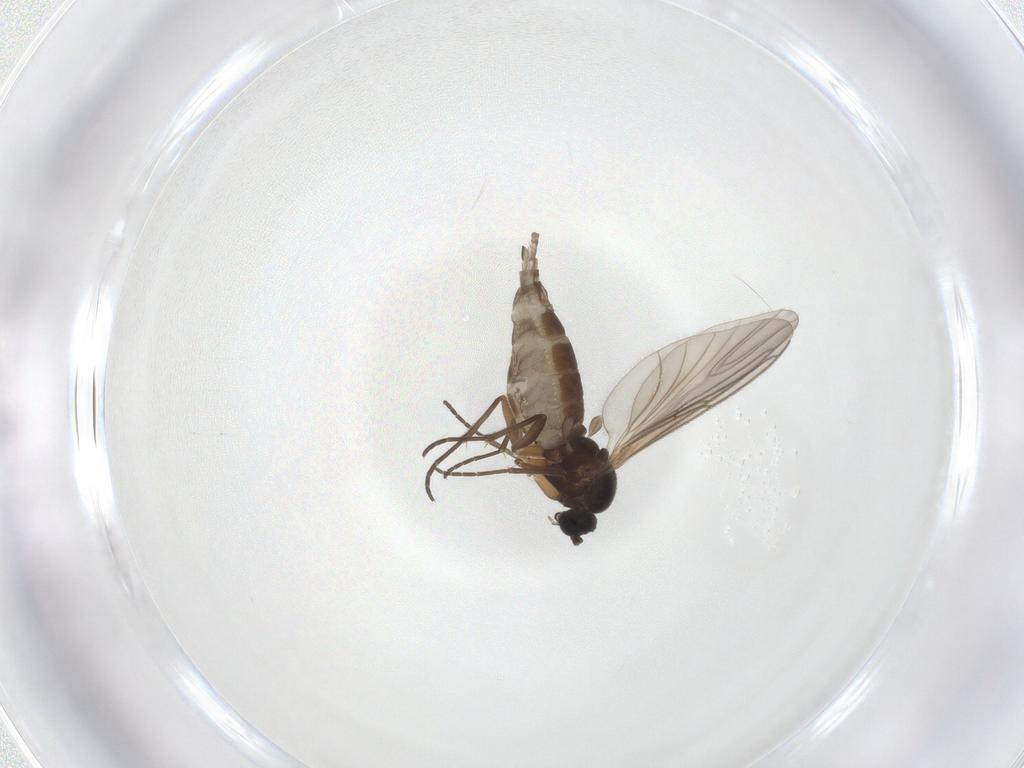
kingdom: Animalia
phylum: Arthropoda
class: Insecta
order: Diptera
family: Sciaridae
